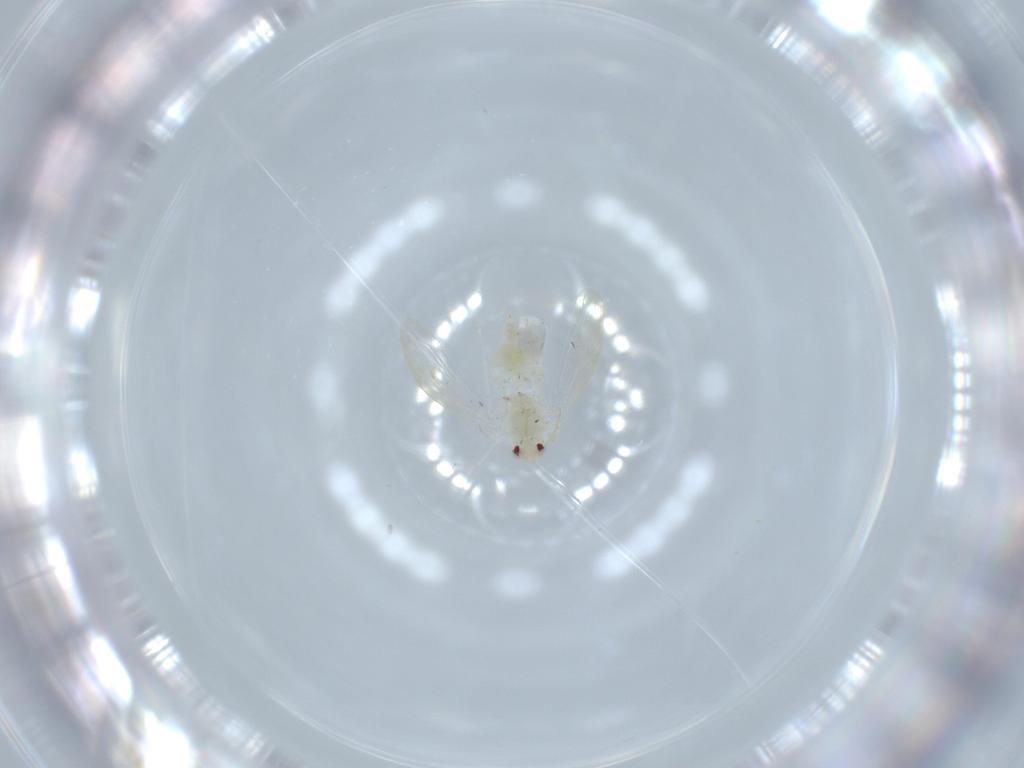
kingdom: Animalia
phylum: Arthropoda
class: Insecta
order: Hemiptera
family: Aleyrodidae
